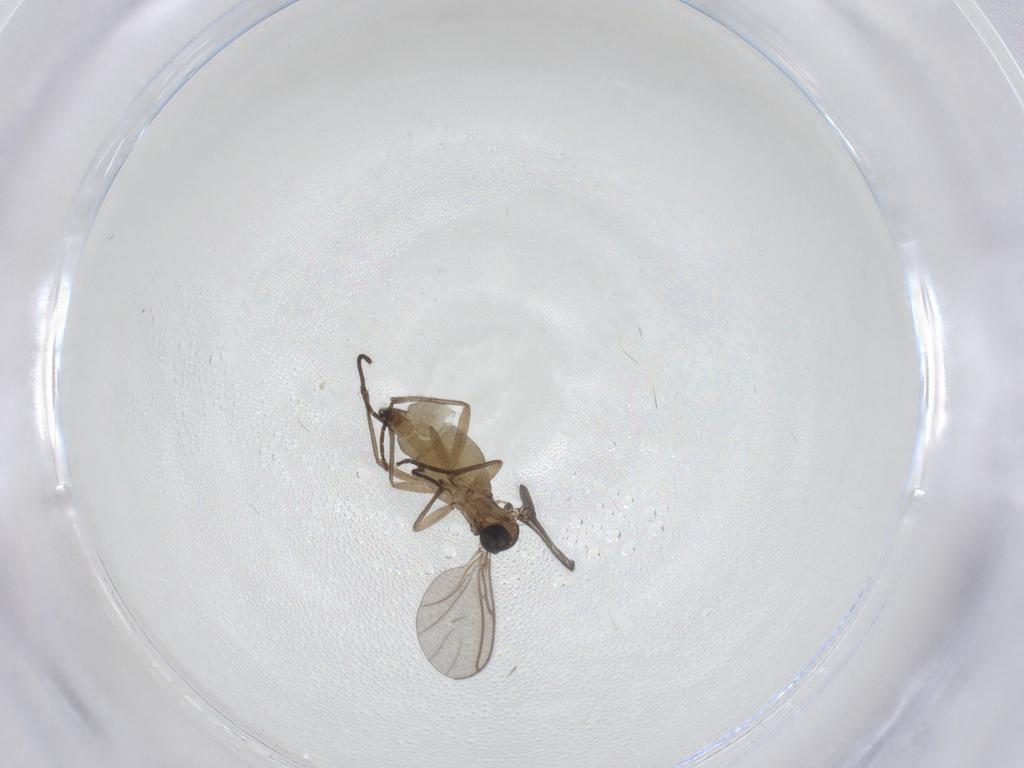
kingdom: Animalia
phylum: Arthropoda
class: Insecta
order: Diptera
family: Sciaridae
